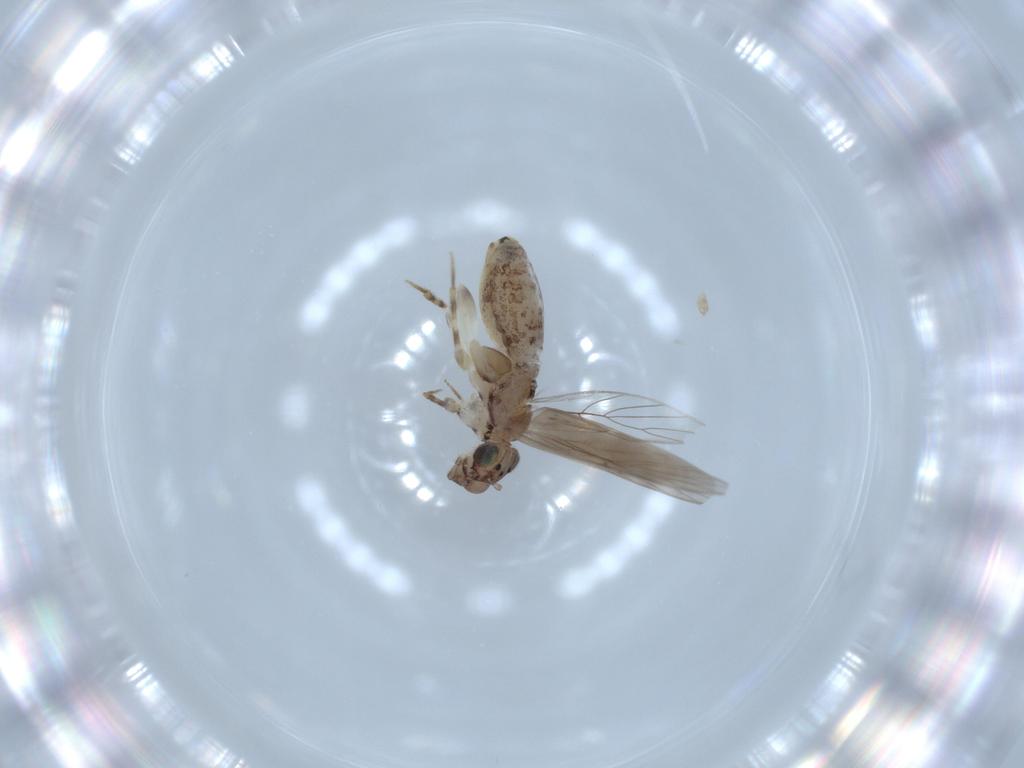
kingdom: Animalia
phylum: Arthropoda
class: Insecta
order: Psocodea
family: Lepidopsocidae
